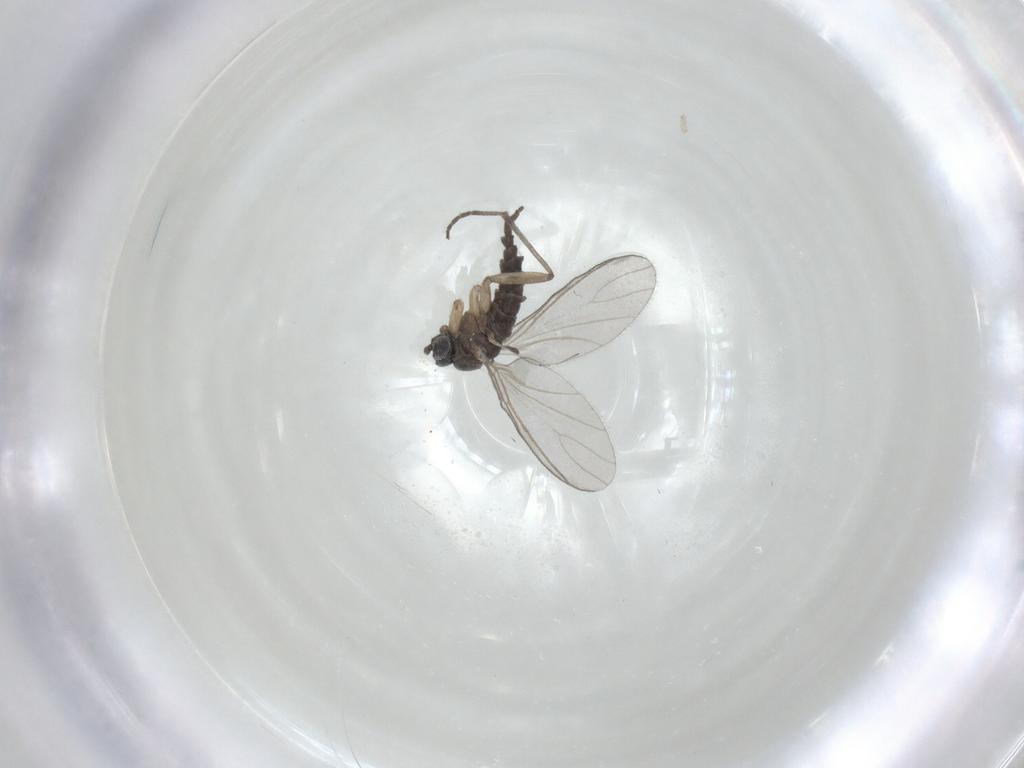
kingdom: Animalia
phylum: Arthropoda
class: Insecta
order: Diptera
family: Sciaridae
